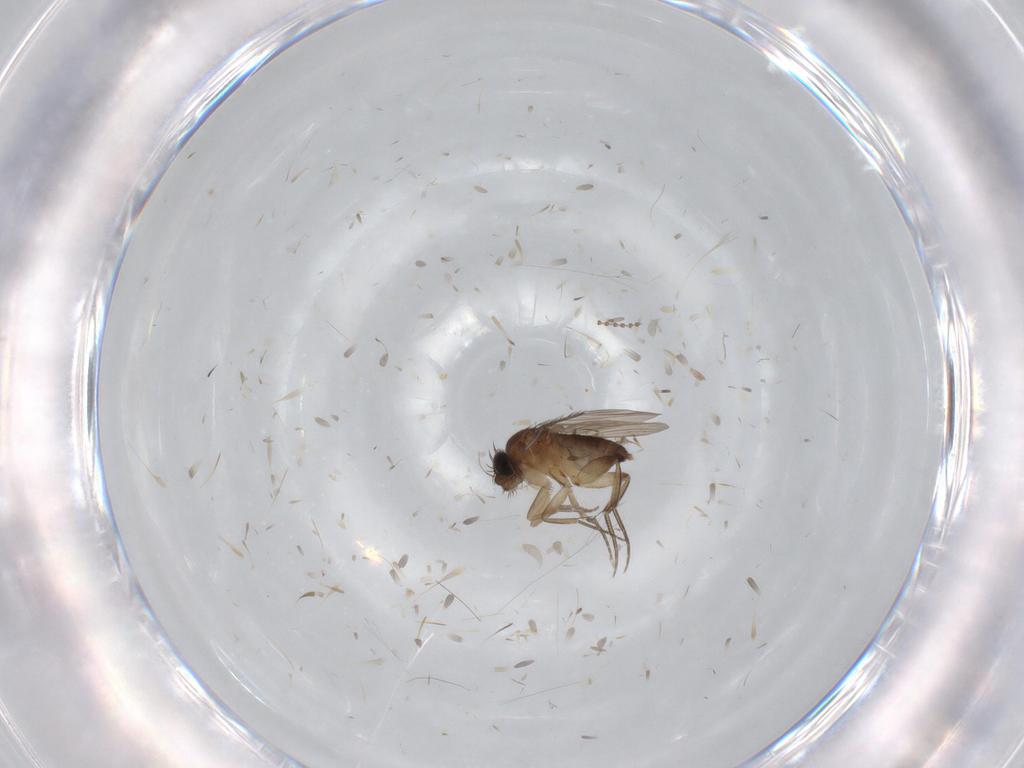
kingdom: Animalia
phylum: Arthropoda
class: Insecta
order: Diptera
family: Phoridae
